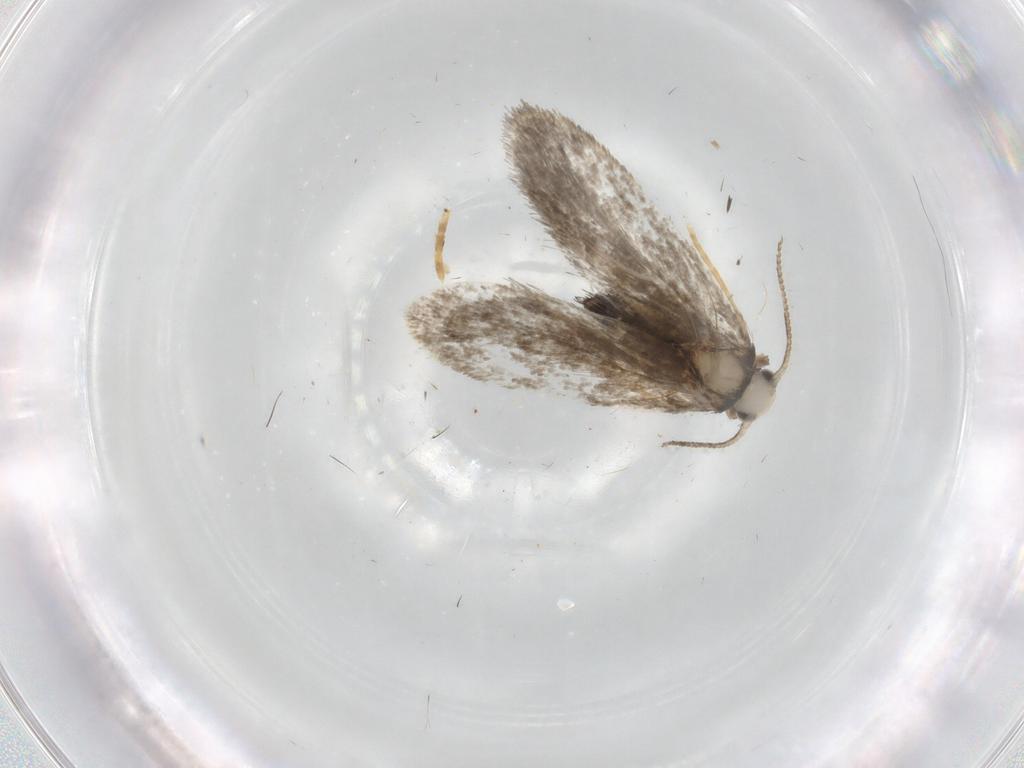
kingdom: Animalia
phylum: Arthropoda
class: Insecta
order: Lepidoptera
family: Psychidae
